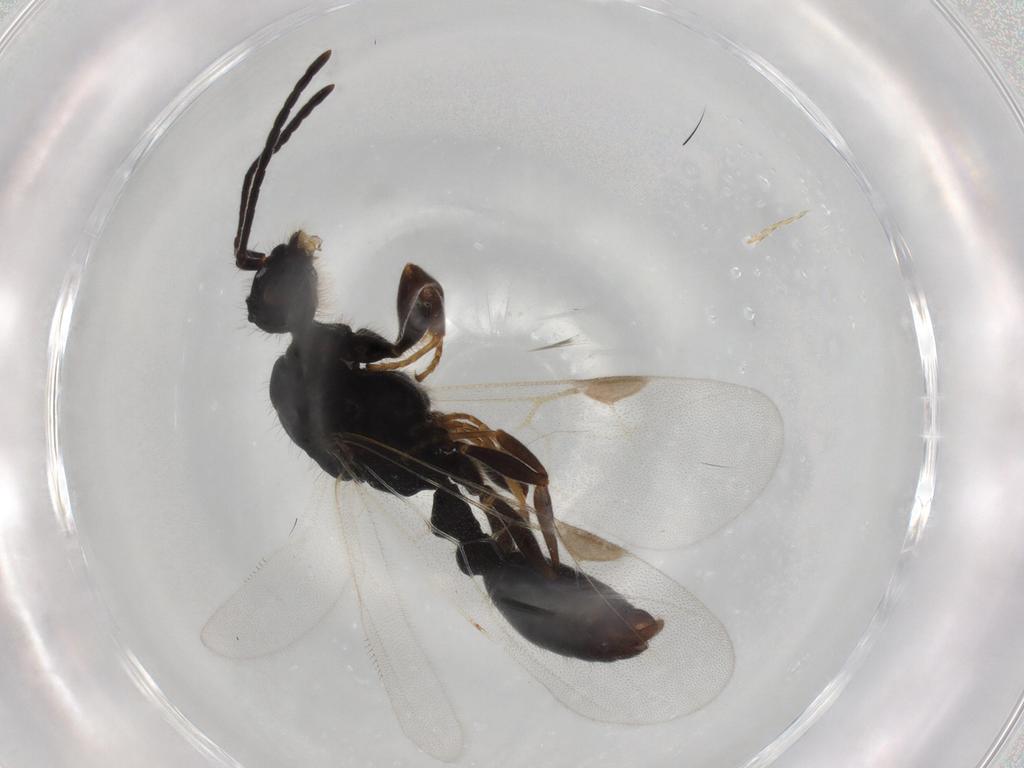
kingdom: Animalia
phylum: Arthropoda
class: Insecta
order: Hymenoptera
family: Formicidae
